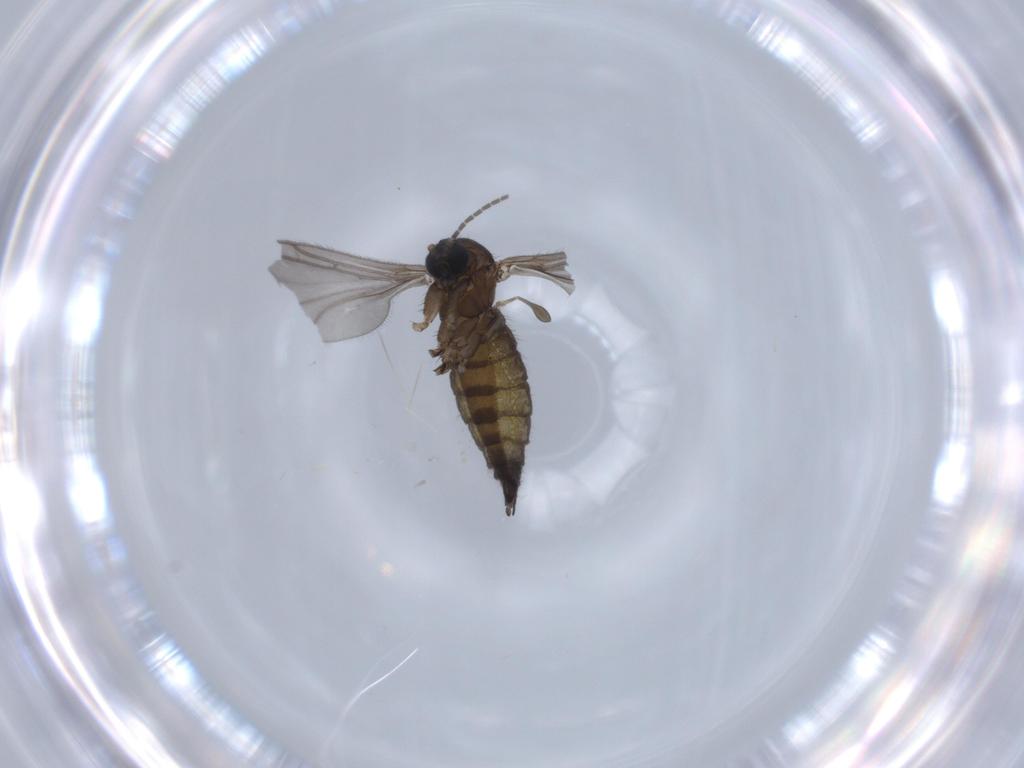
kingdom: Animalia
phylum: Arthropoda
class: Insecta
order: Diptera
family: Sciaridae
